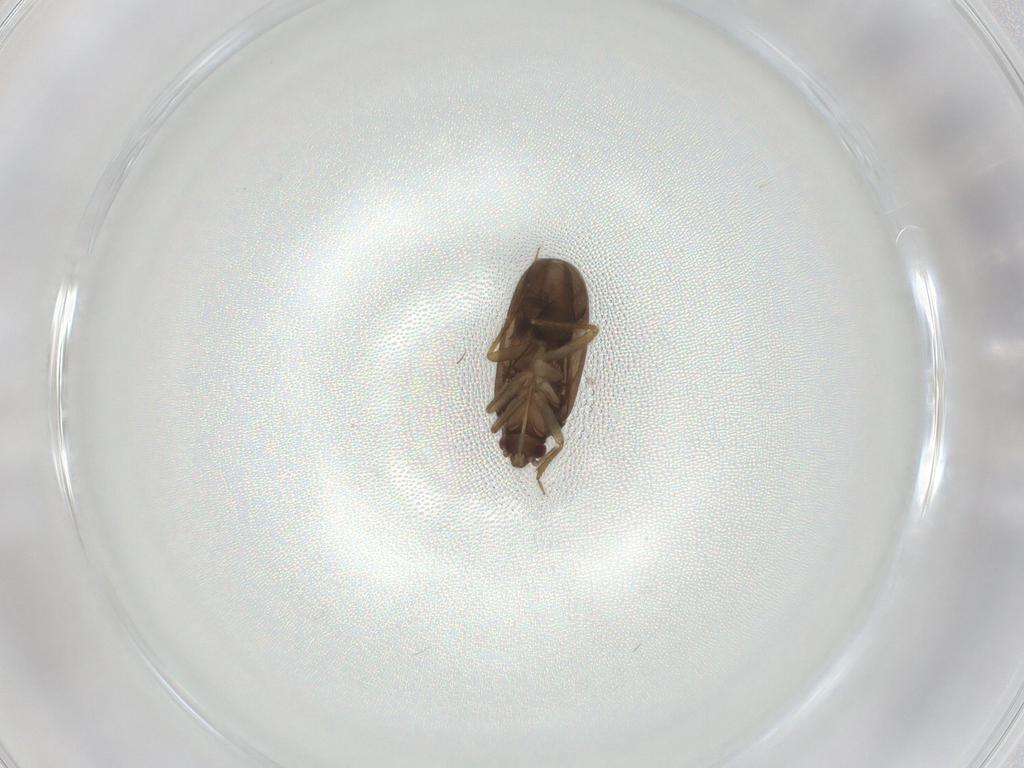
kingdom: Animalia
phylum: Arthropoda
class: Insecta
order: Hemiptera
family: Ceratocombidae
